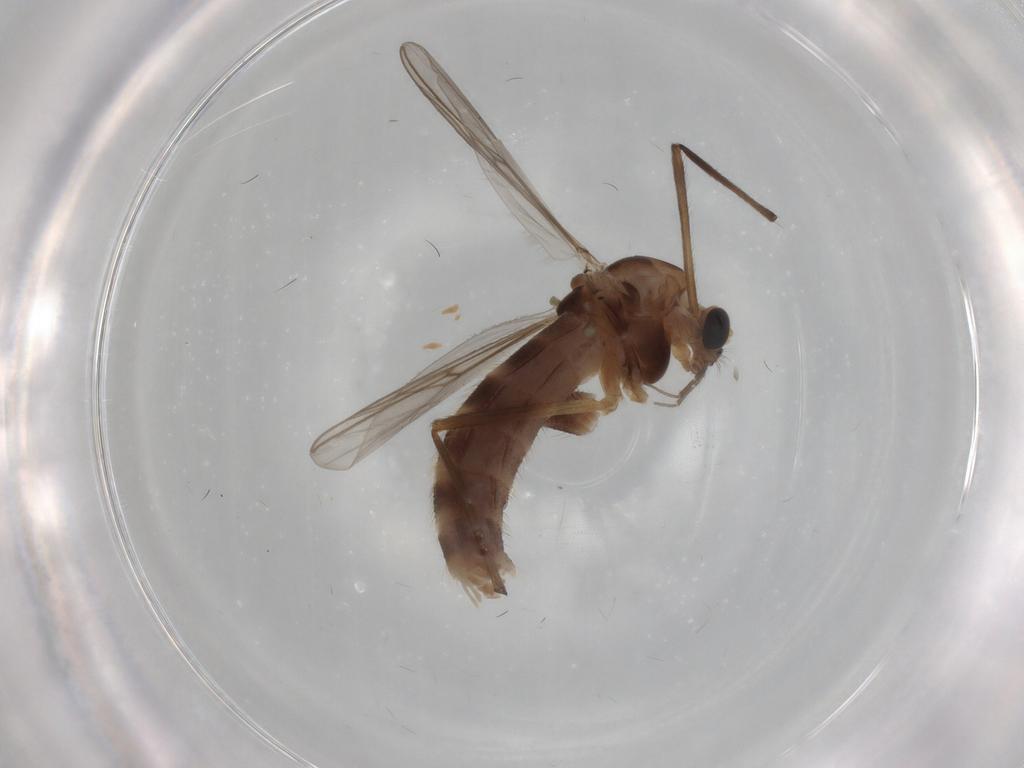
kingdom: Animalia
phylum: Arthropoda
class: Insecta
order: Diptera
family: Chironomidae
